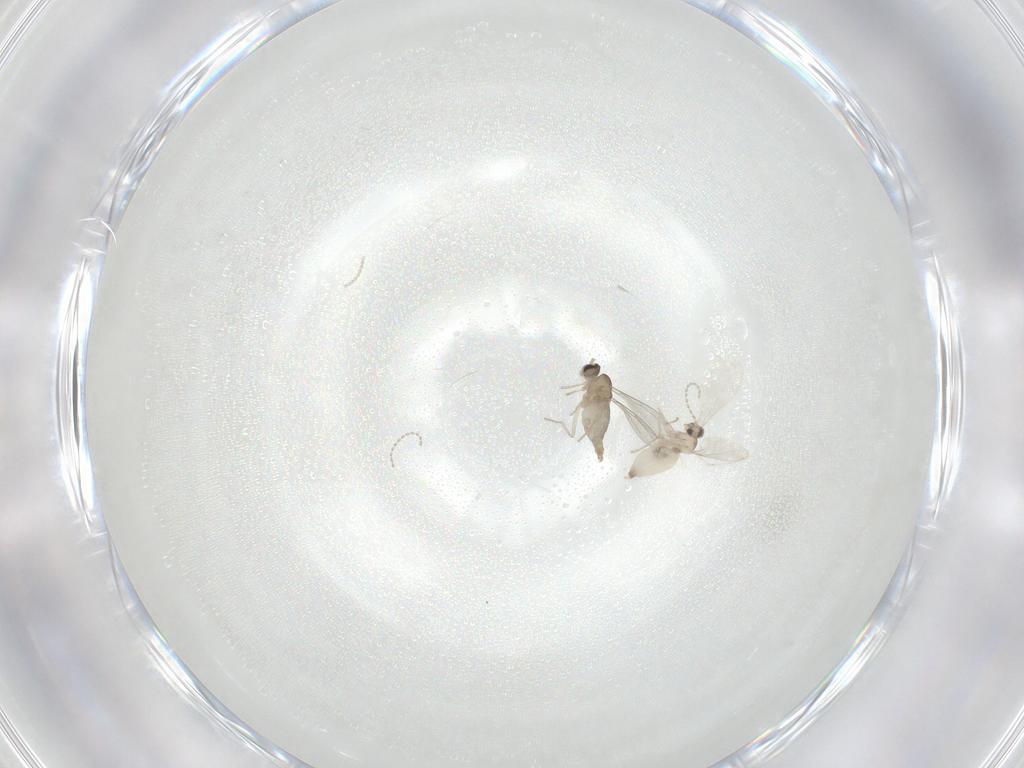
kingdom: Animalia
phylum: Arthropoda
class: Insecta
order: Diptera
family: Cecidomyiidae
